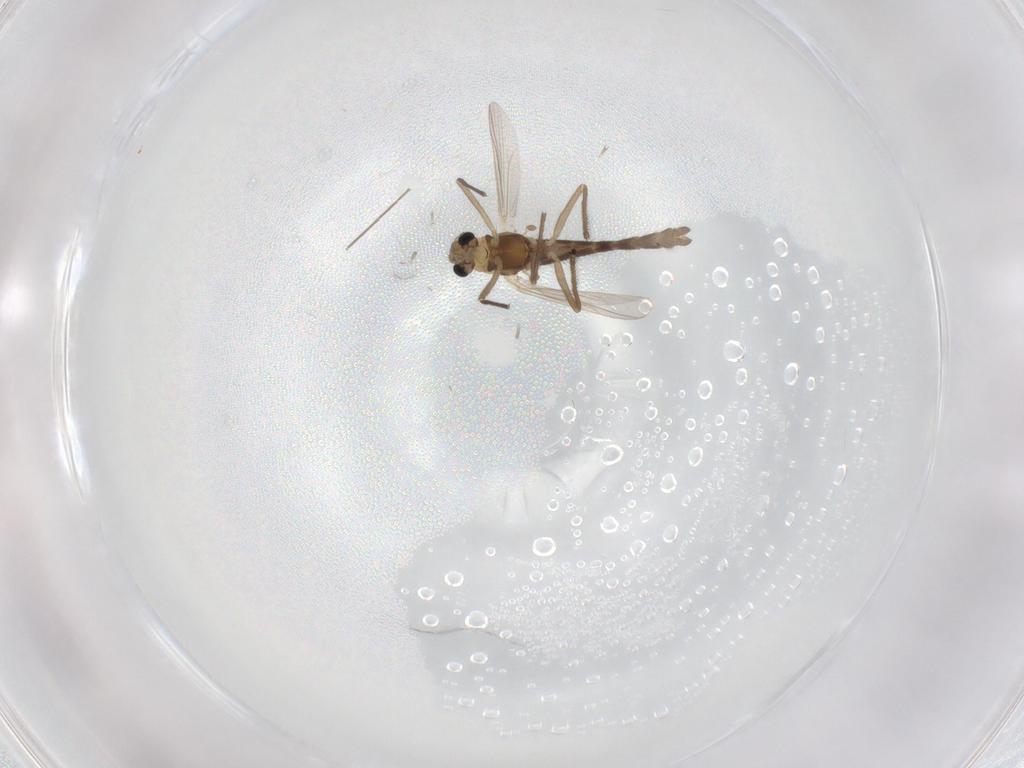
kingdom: Animalia
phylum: Arthropoda
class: Insecta
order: Diptera
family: Chironomidae
